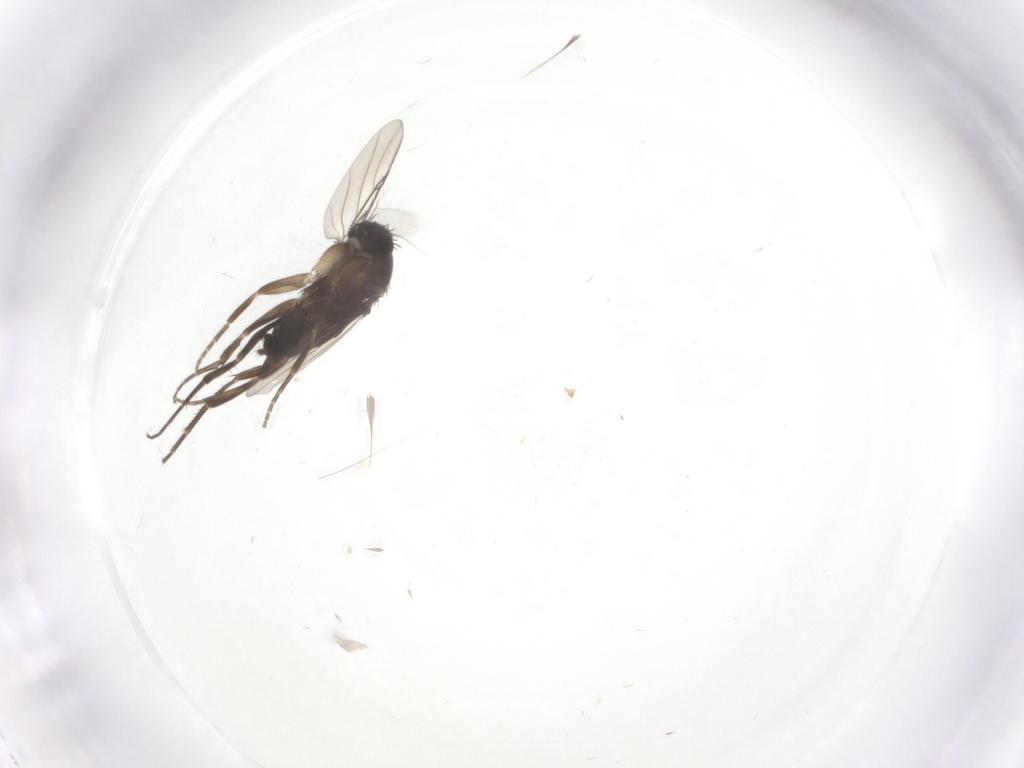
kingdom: Animalia
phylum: Arthropoda
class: Insecta
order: Diptera
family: Phoridae
